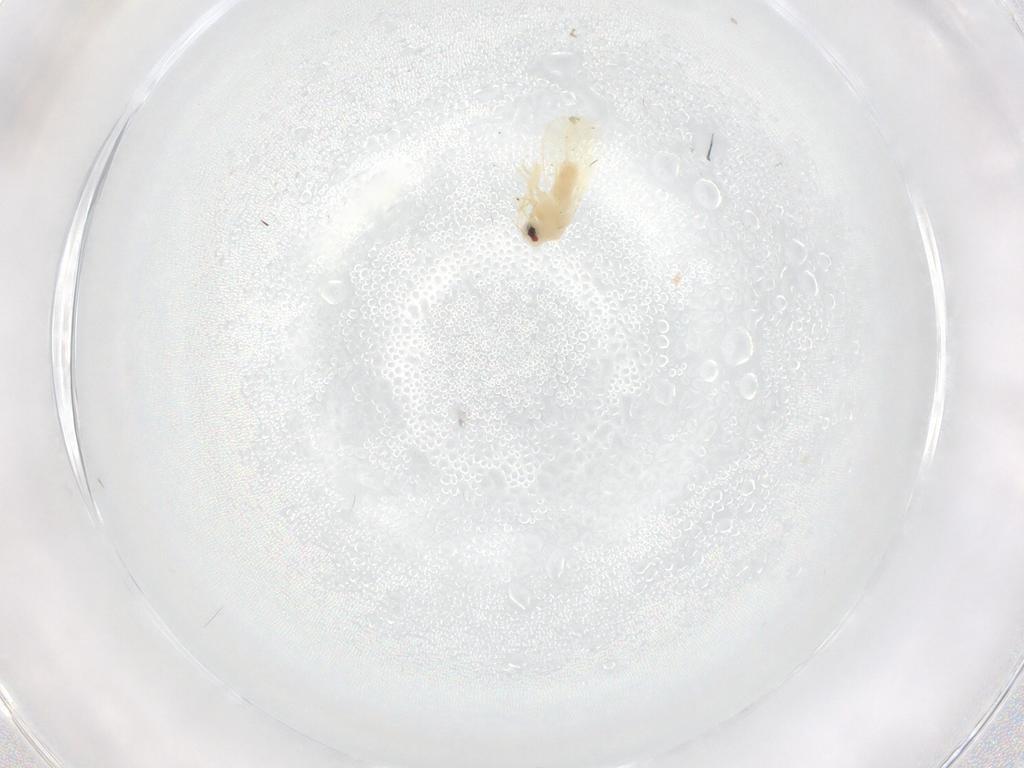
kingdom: Animalia
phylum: Arthropoda
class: Insecta
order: Hemiptera
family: Aleyrodidae
